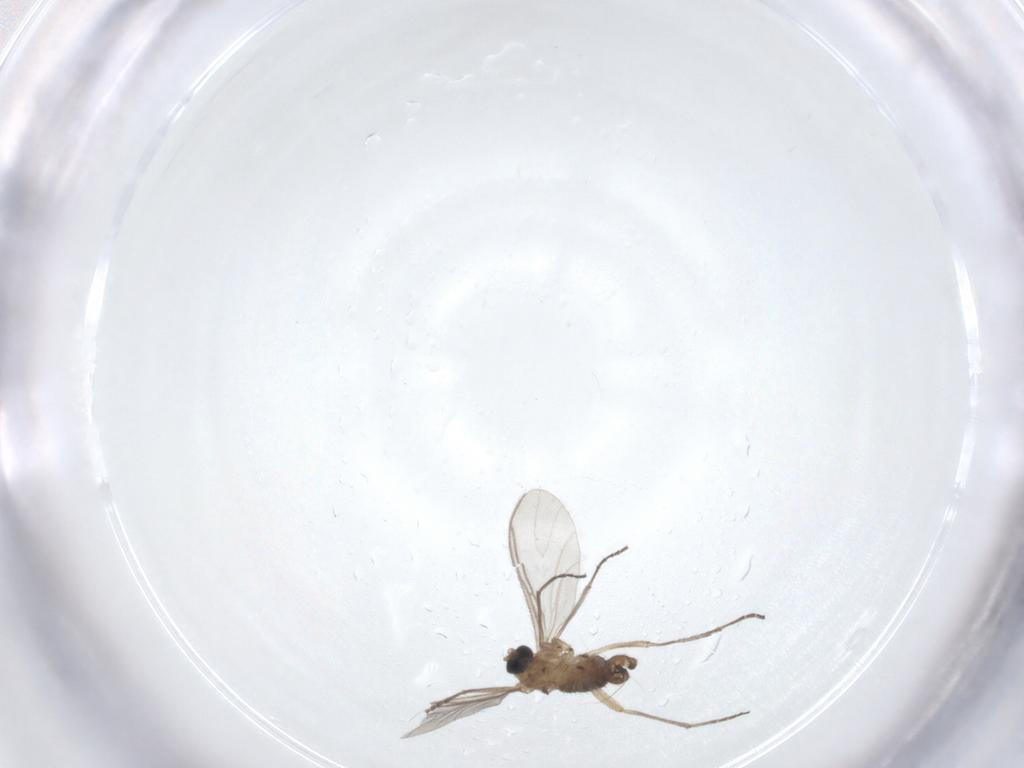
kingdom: Animalia
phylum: Arthropoda
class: Insecta
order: Diptera
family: Sciaridae
